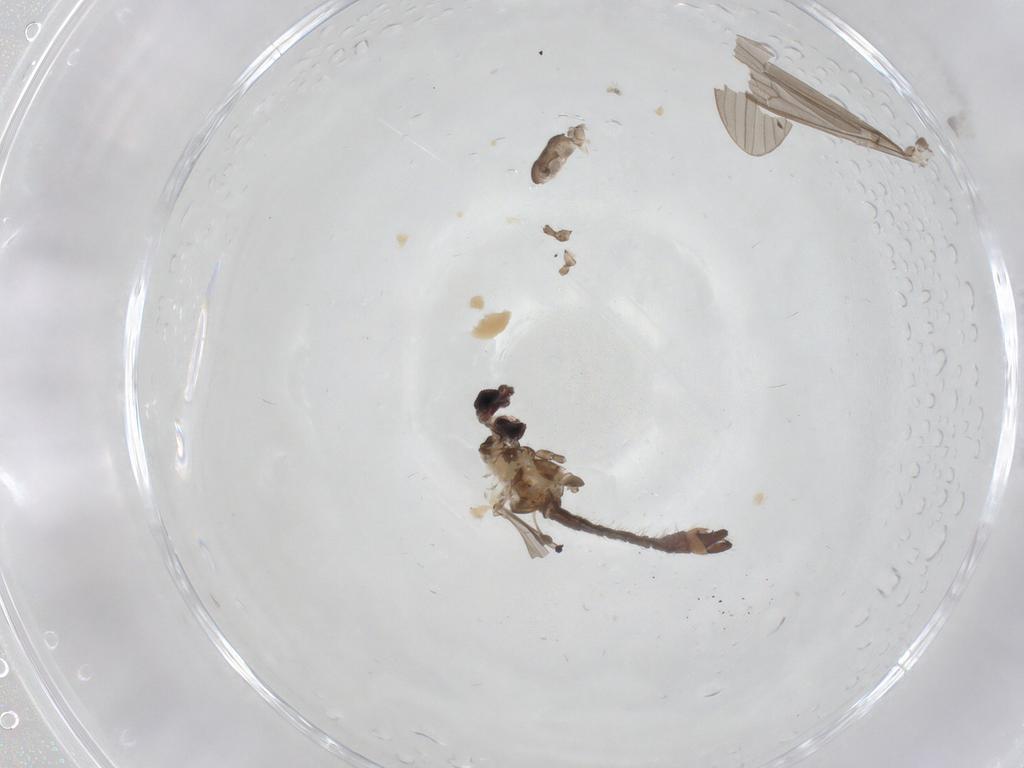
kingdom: Animalia
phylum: Arthropoda
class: Insecta
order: Diptera
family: Limoniidae
